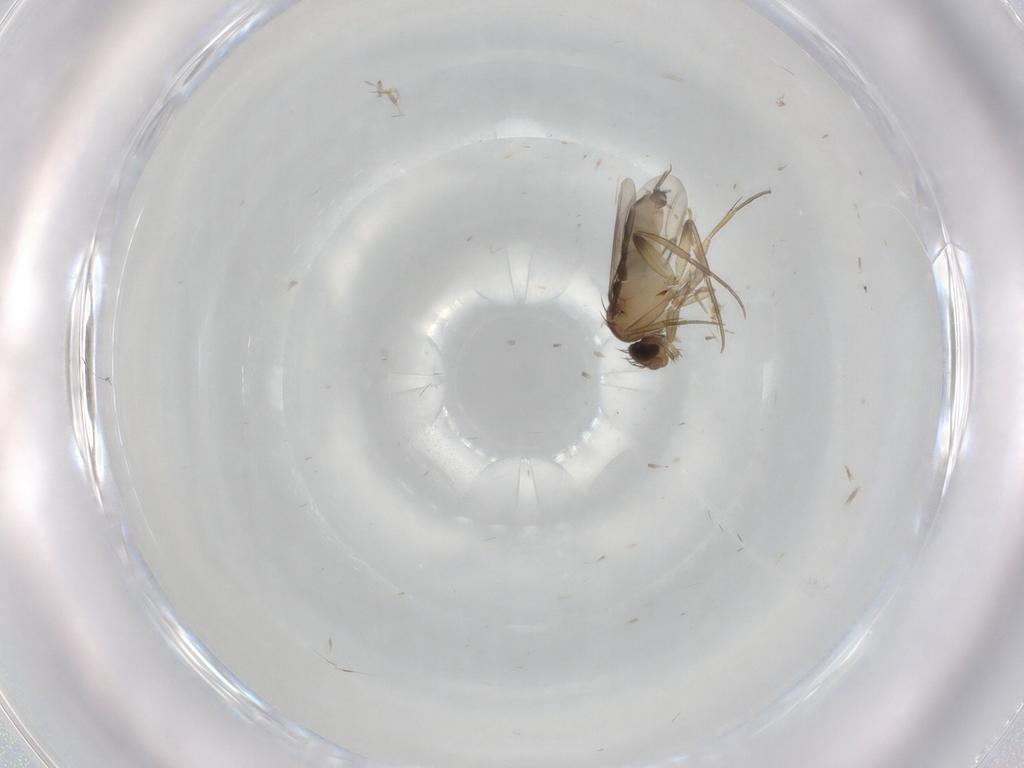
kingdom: Animalia
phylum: Arthropoda
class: Insecta
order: Diptera
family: Phoridae
